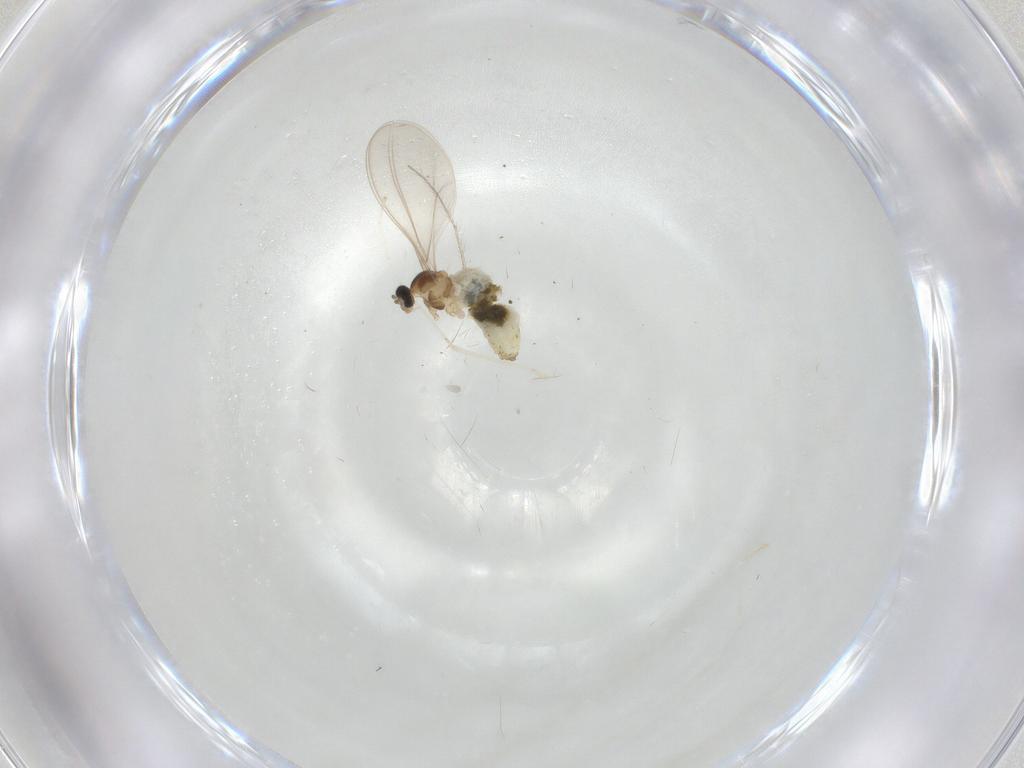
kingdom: Animalia
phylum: Arthropoda
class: Insecta
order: Diptera
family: Cecidomyiidae
